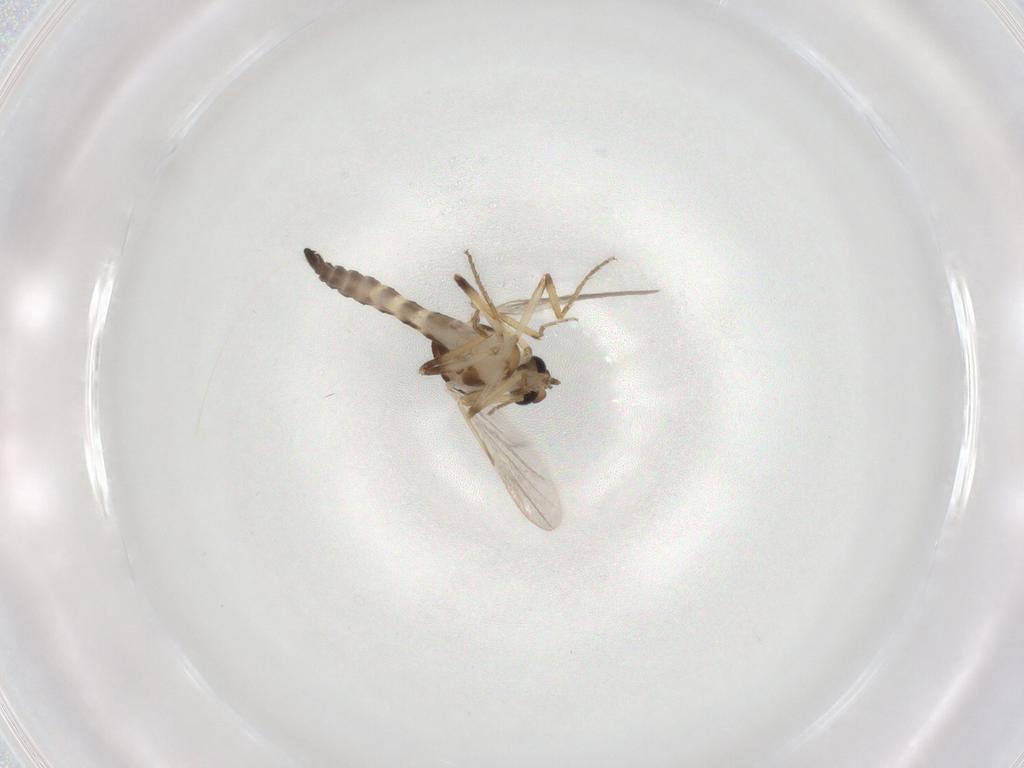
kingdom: Animalia
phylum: Arthropoda
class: Insecta
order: Diptera
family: Ceratopogonidae
